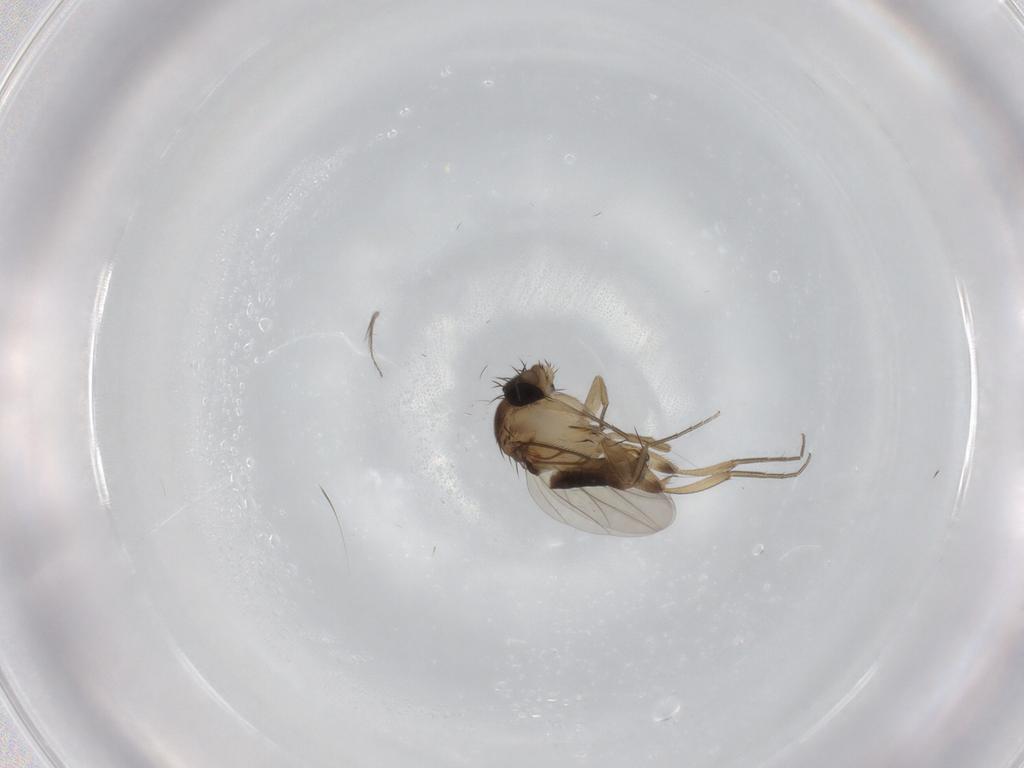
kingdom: Animalia
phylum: Arthropoda
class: Insecta
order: Diptera
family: Phoridae
